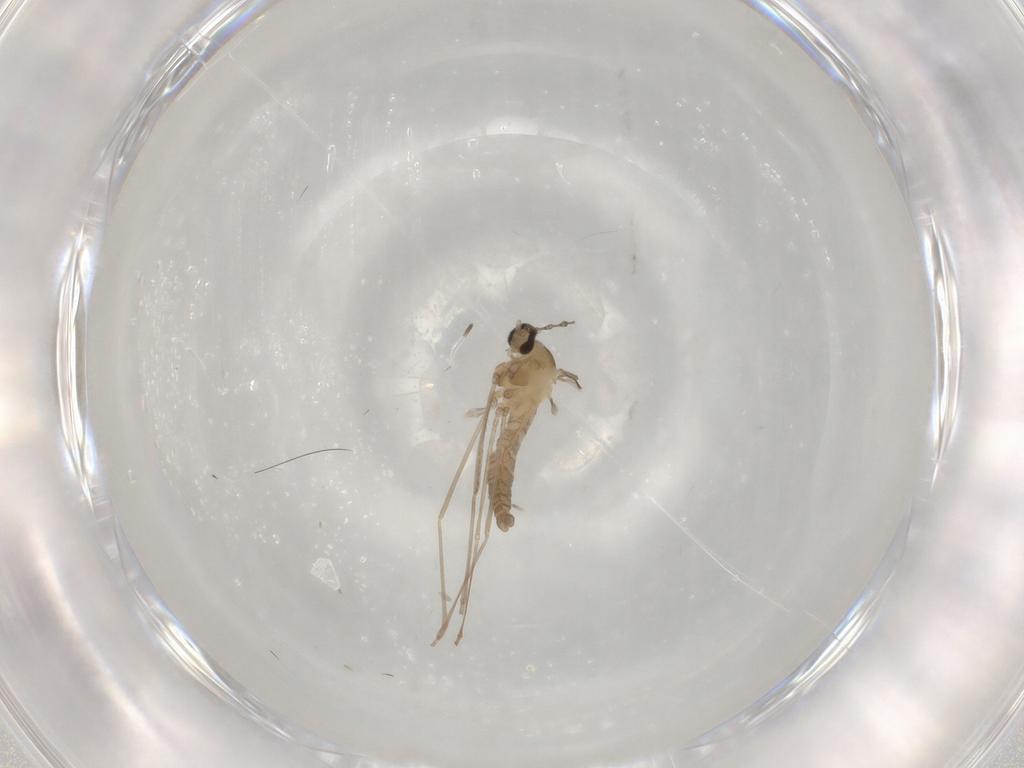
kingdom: Animalia
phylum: Arthropoda
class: Insecta
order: Diptera
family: Cecidomyiidae
